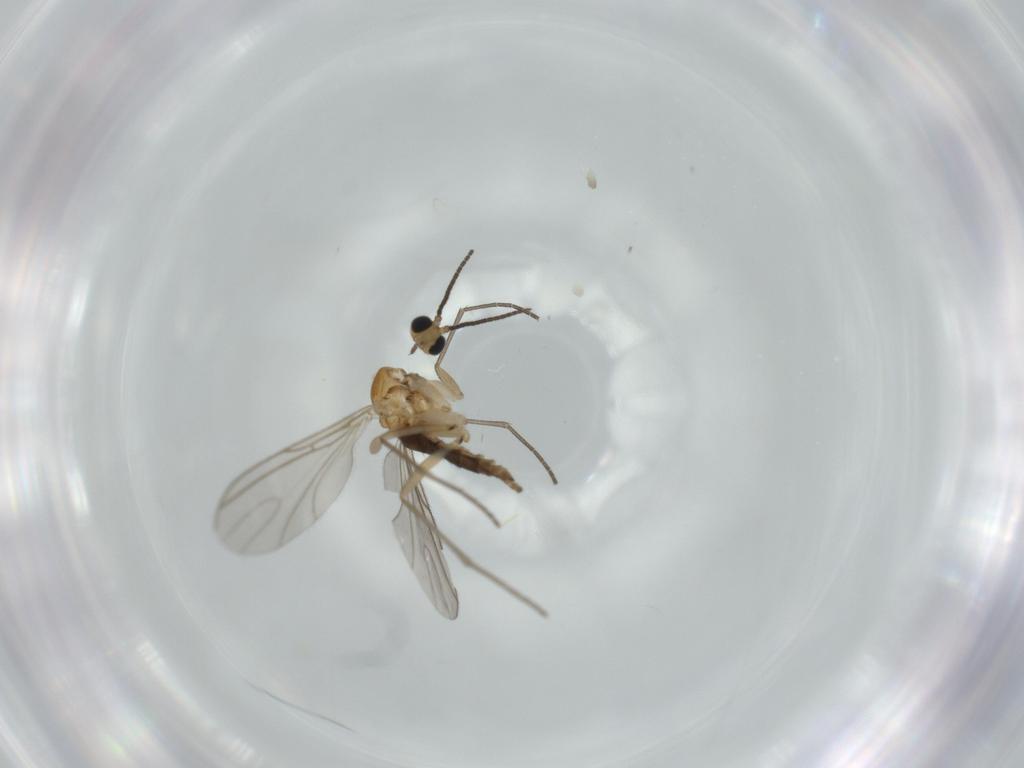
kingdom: Animalia
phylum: Arthropoda
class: Insecta
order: Diptera
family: Sciaridae
